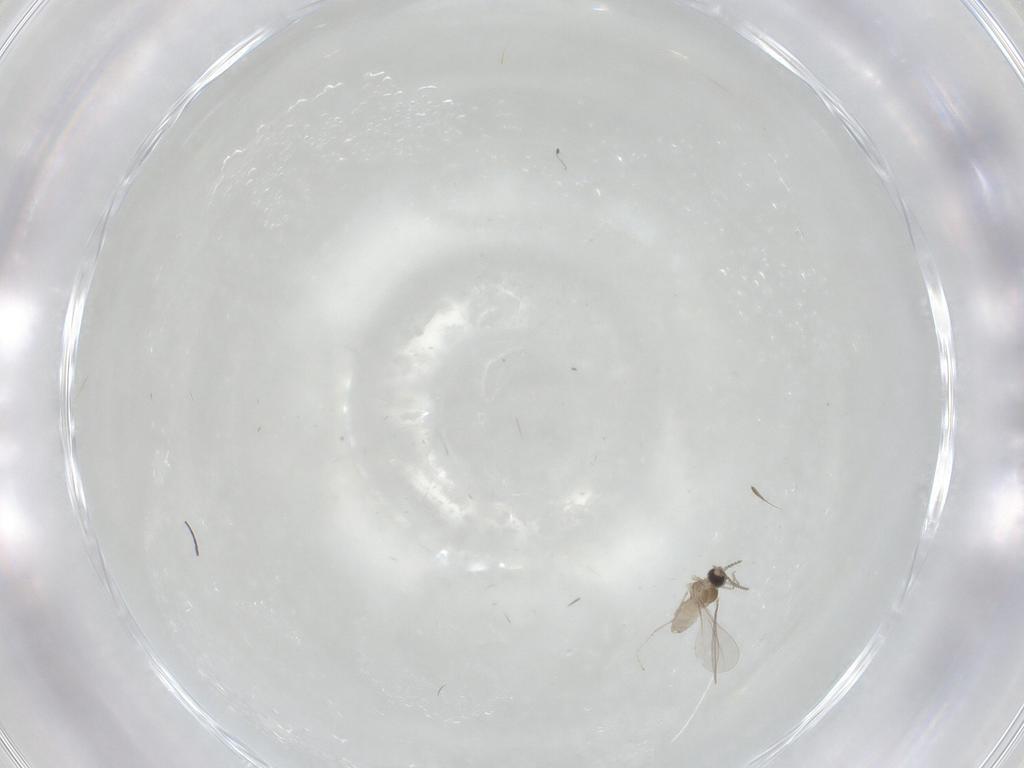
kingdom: Animalia
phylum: Arthropoda
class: Insecta
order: Diptera
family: Cecidomyiidae
